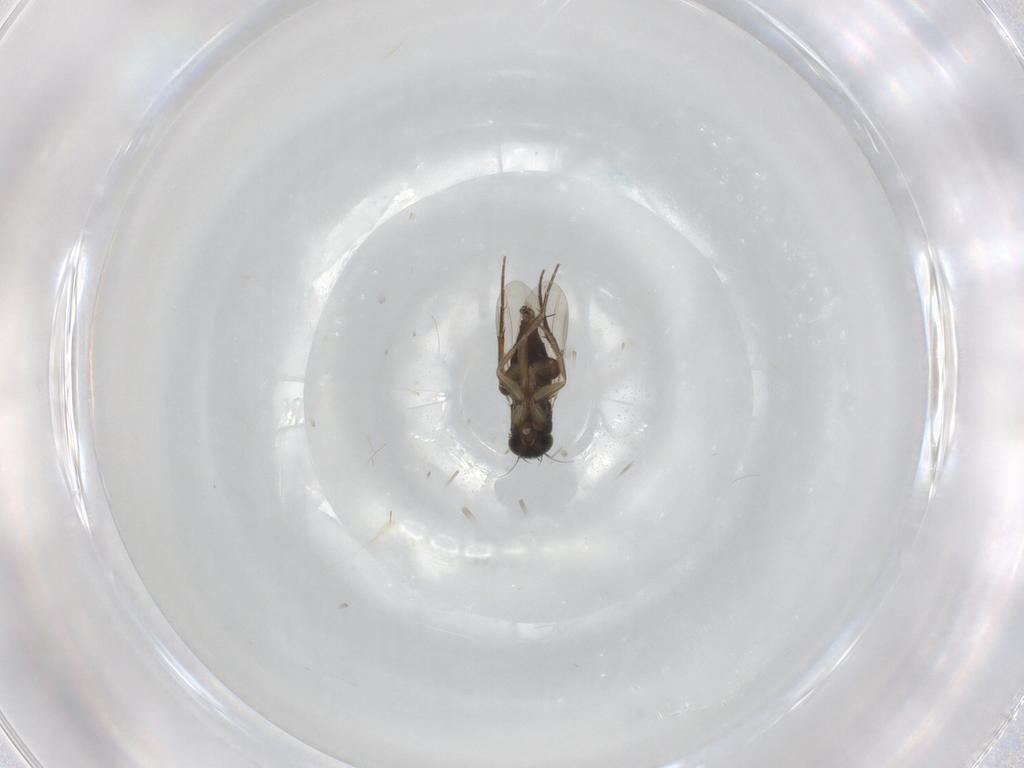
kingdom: Animalia
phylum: Arthropoda
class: Insecta
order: Diptera
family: Phoridae
